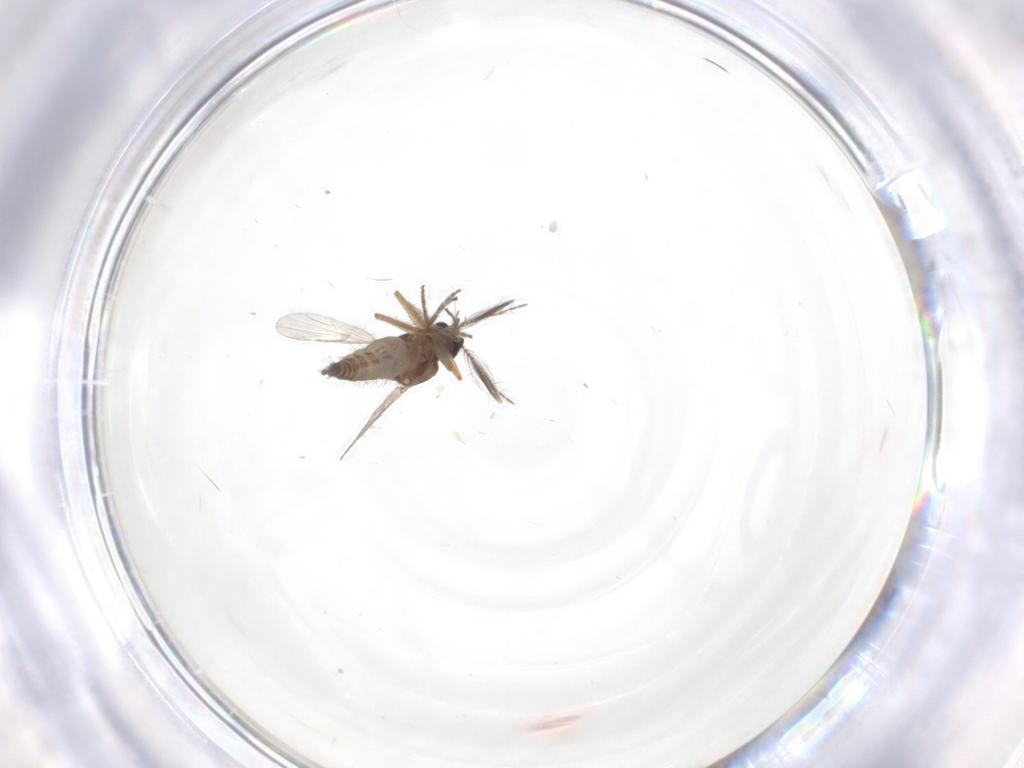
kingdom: Animalia
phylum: Arthropoda
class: Insecta
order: Diptera
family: Ceratopogonidae
